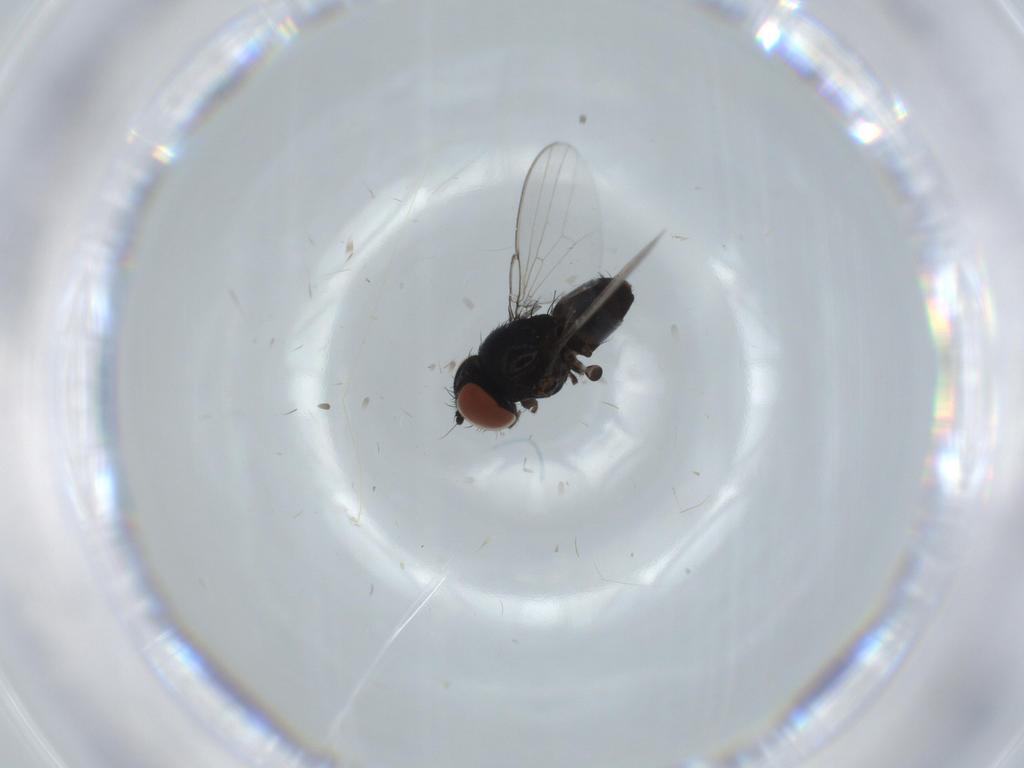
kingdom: Animalia
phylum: Arthropoda
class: Insecta
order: Diptera
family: Milichiidae
